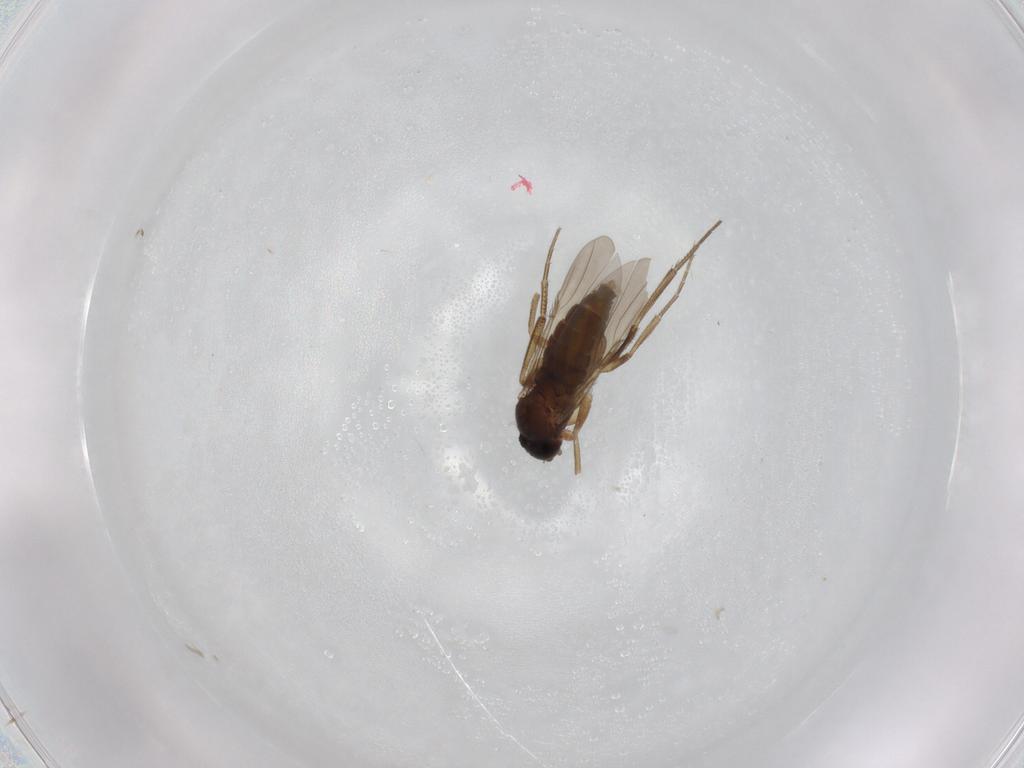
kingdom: Animalia
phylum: Arthropoda
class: Insecta
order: Diptera
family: Phoridae
